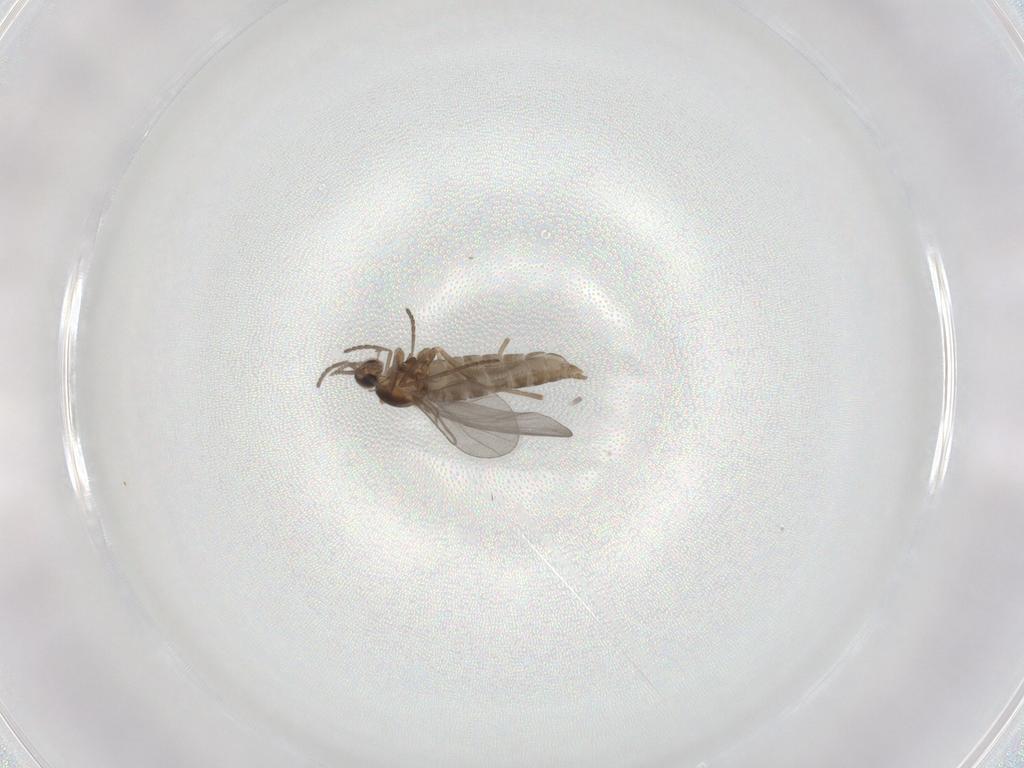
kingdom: Animalia
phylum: Arthropoda
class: Insecta
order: Diptera
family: Cecidomyiidae
